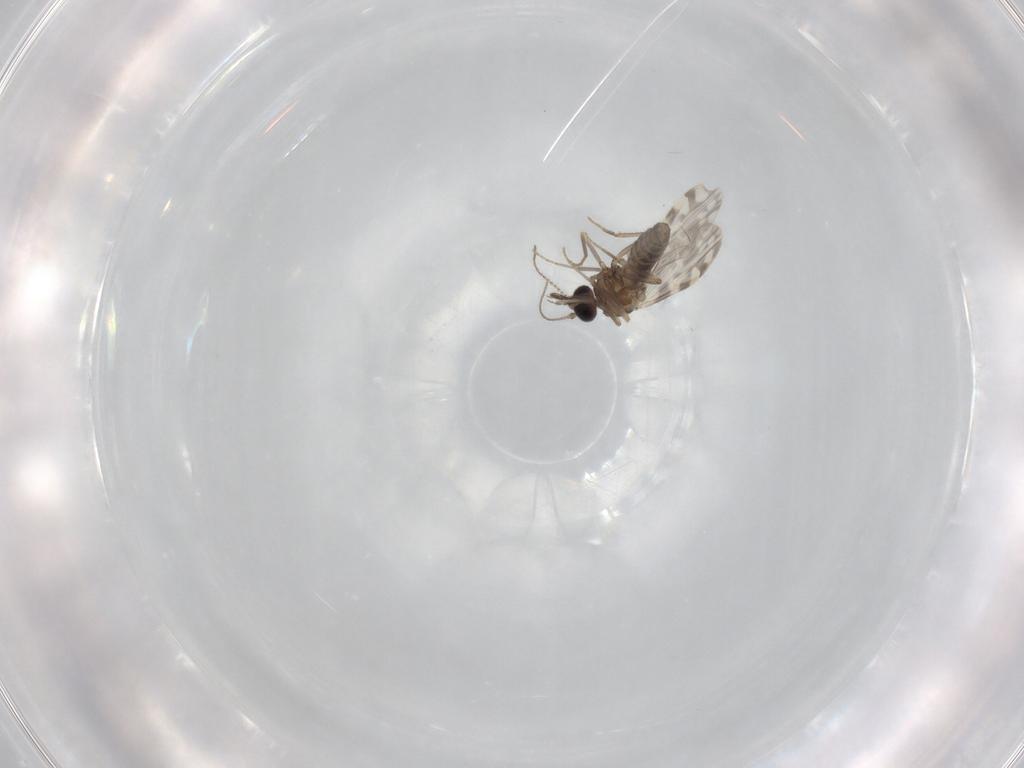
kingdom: Animalia
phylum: Arthropoda
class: Insecta
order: Diptera
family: Ceratopogonidae
